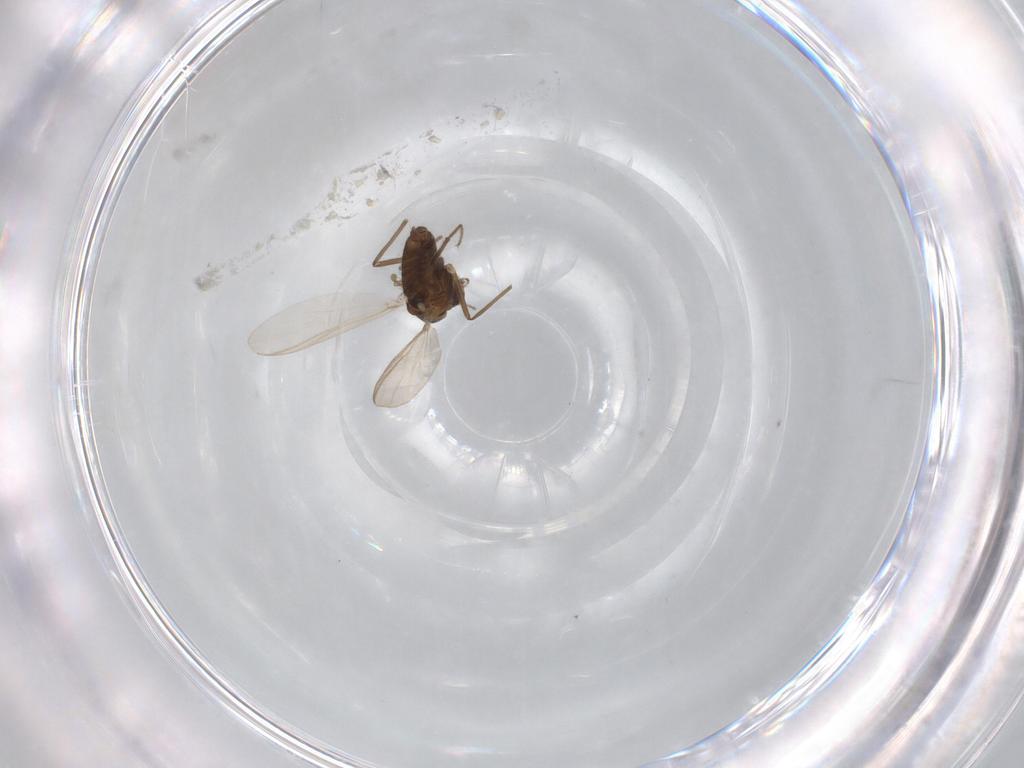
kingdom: Animalia
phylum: Arthropoda
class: Insecta
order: Diptera
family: Chironomidae
